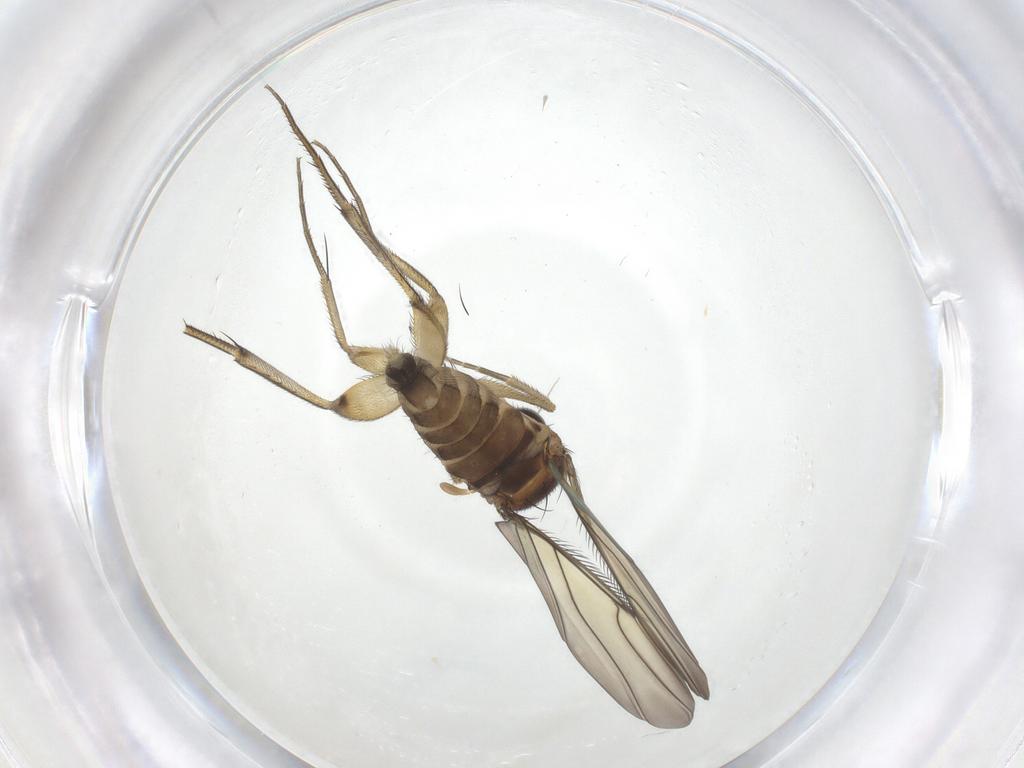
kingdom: Animalia
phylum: Arthropoda
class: Insecta
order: Diptera
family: Phoridae
